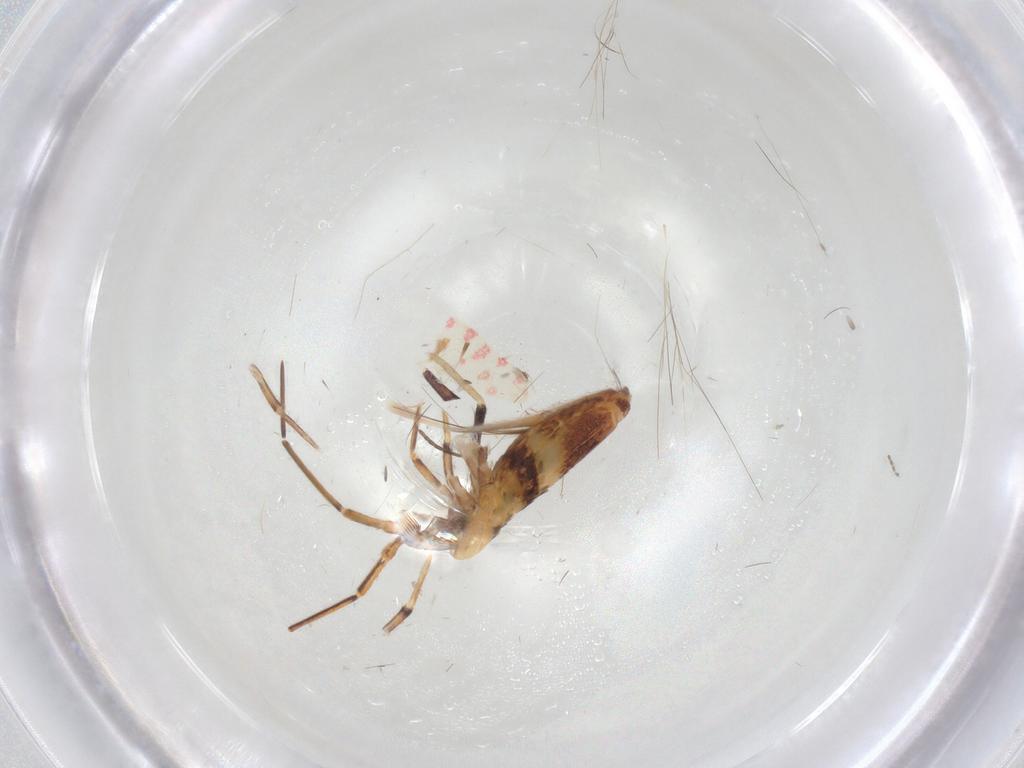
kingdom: Animalia
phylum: Arthropoda
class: Collembola
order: Entomobryomorpha
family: Entomobryidae
